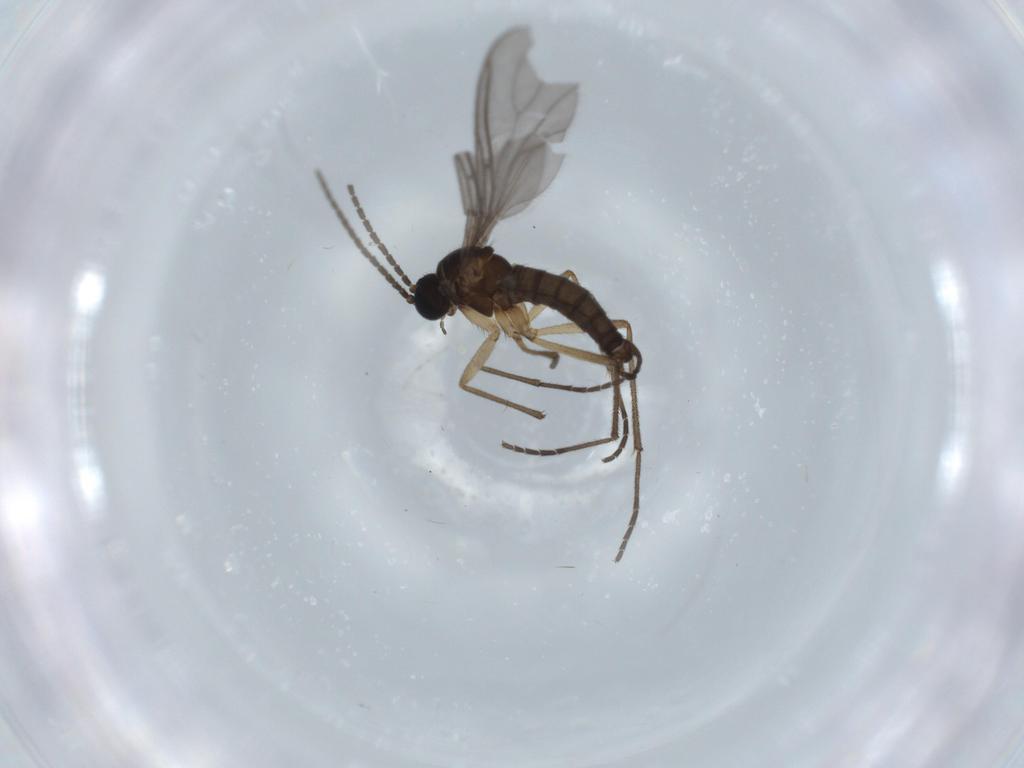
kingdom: Animalia
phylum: Arthropoda
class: Insecta
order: Diptera
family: Sciaridae
